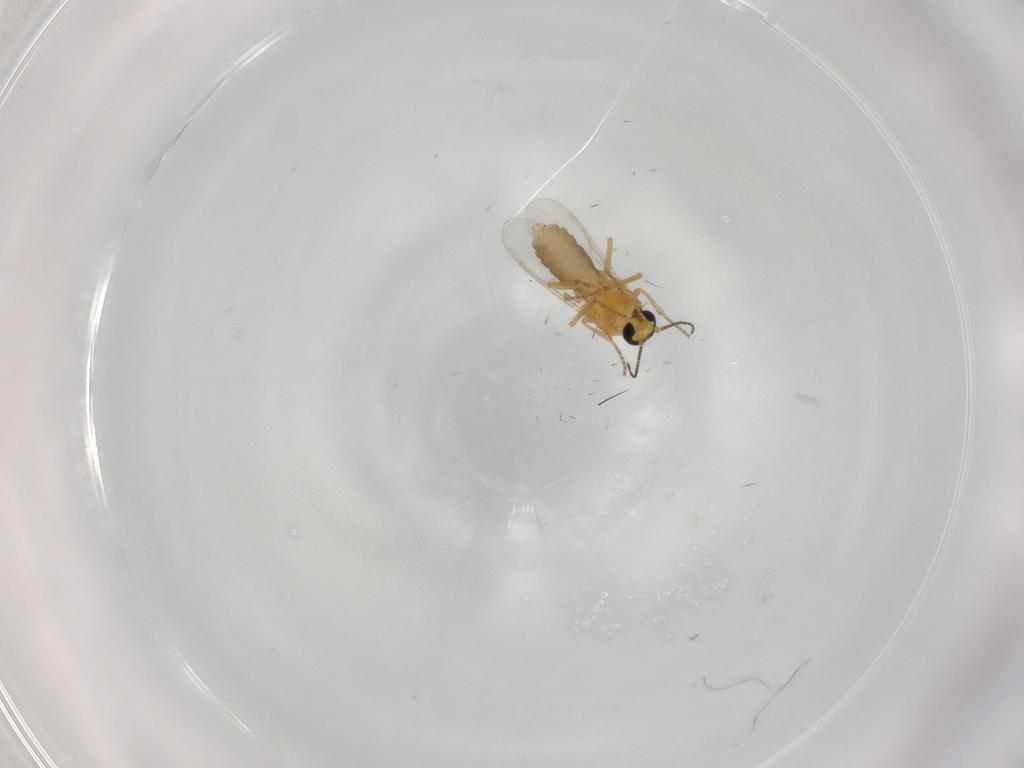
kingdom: Animalia
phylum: Arthropoda
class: Insecta
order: Diptera
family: Ceratopogonidae
